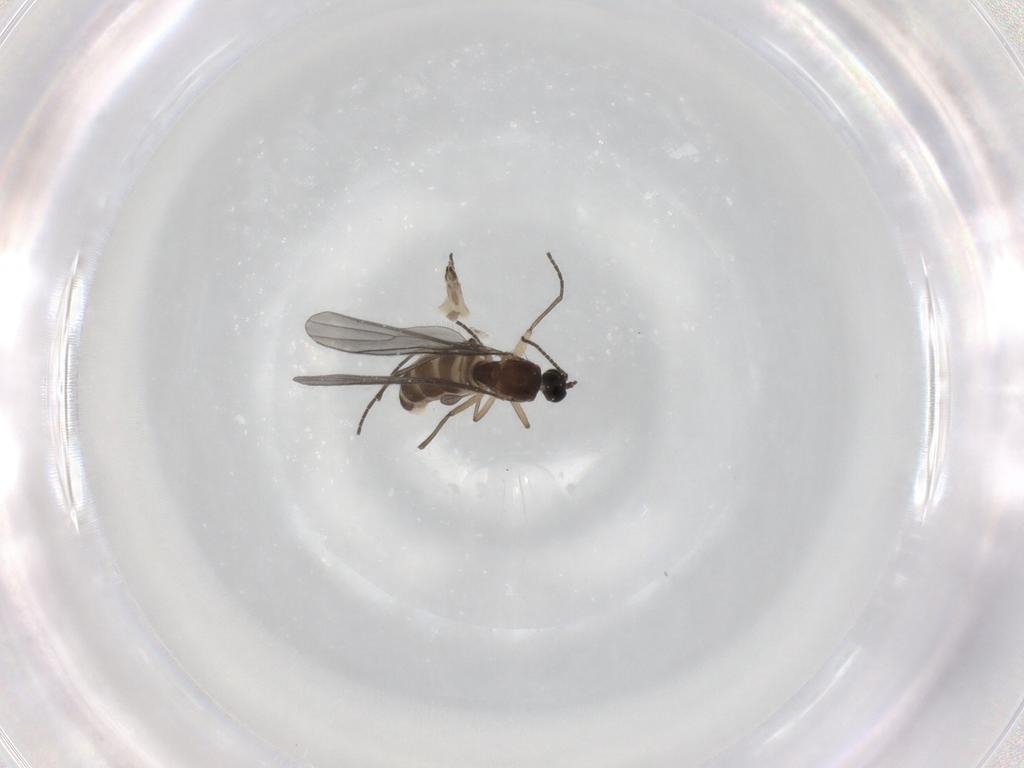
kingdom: Animalia
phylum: Arthropoda
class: Insecta
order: Diptera
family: Sciaridae
